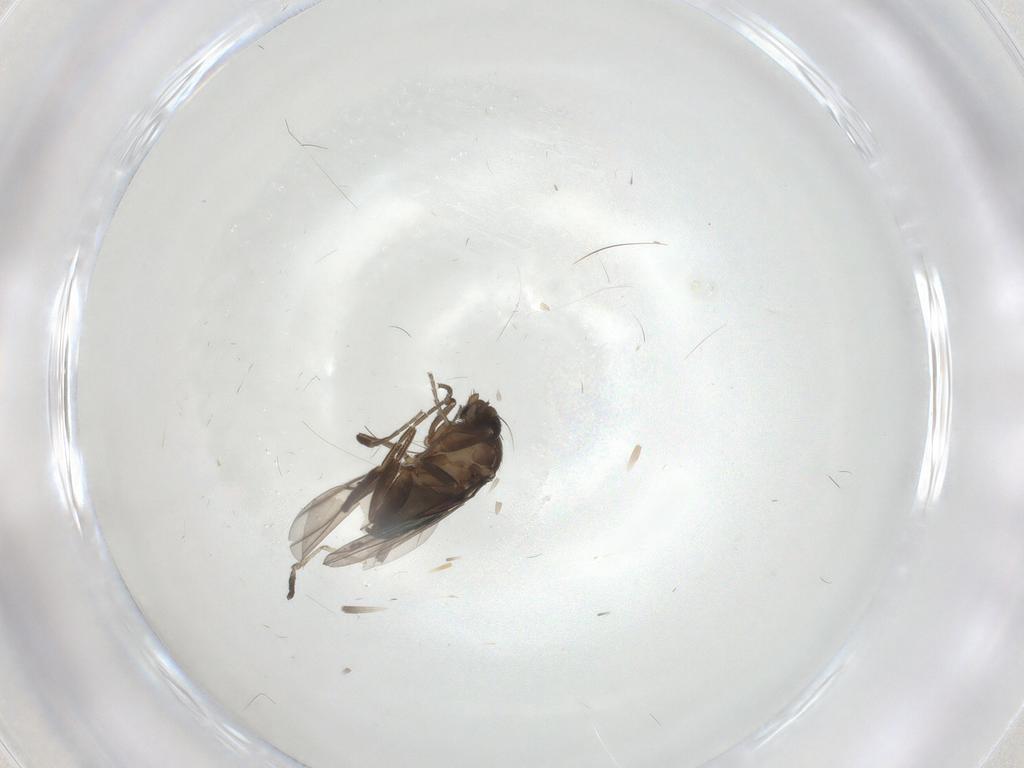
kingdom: Animalia
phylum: Arthropoda
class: Insecta
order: Diptera
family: Phoridae
